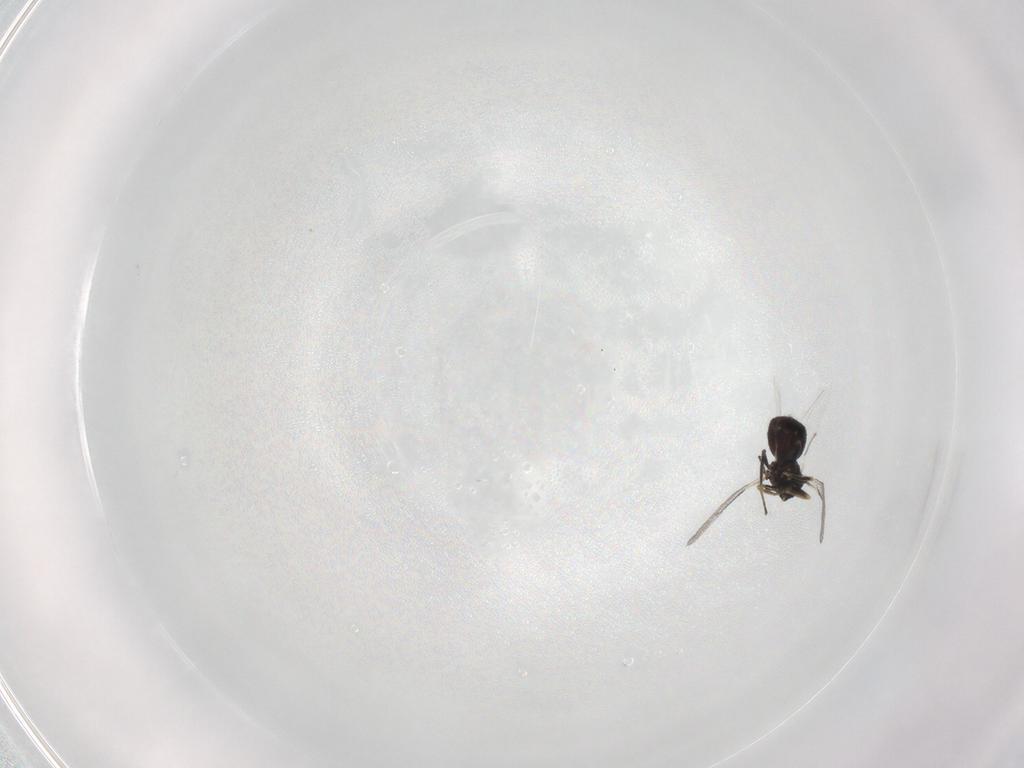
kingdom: Animalia
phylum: Arthropoda
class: Insecta
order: Hymenoptera
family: Eulophidae
